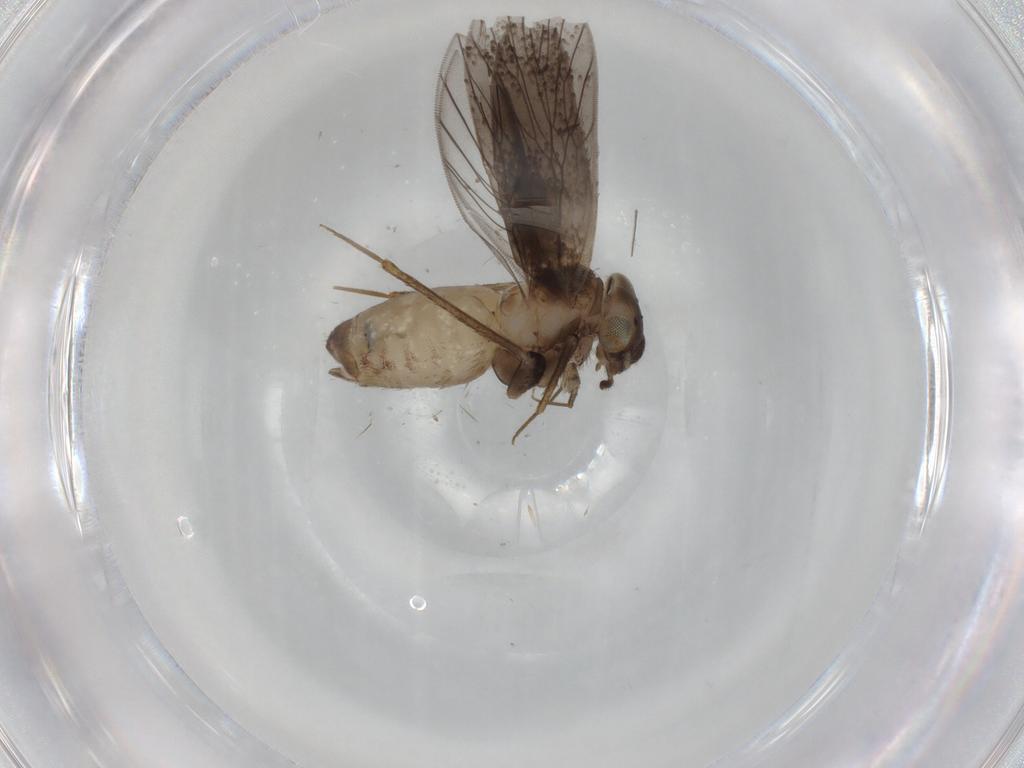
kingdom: Animalia
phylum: Arthropoda
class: Insecta
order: Psocodea
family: Lepidopsocidae
